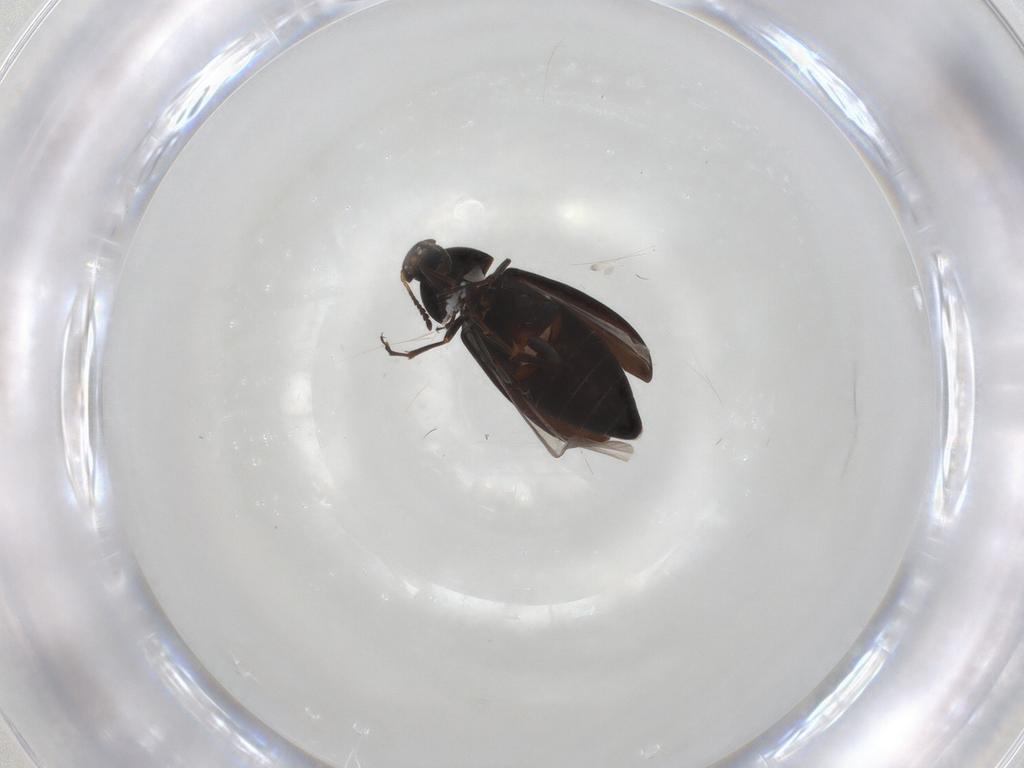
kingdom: Animalia
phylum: Arthropoda
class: Insecta
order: Coleoptera
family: Scraptiidae
